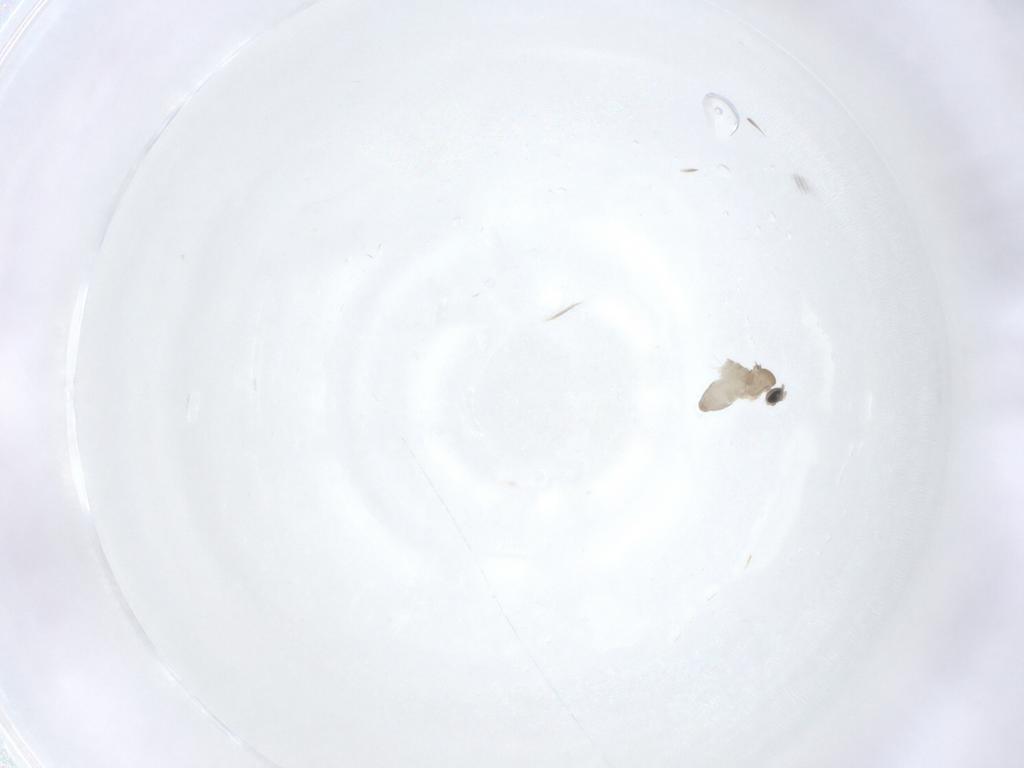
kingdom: Animalia
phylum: Arthropoda
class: Insecta
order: Diptera
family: Cecidomyiidae
